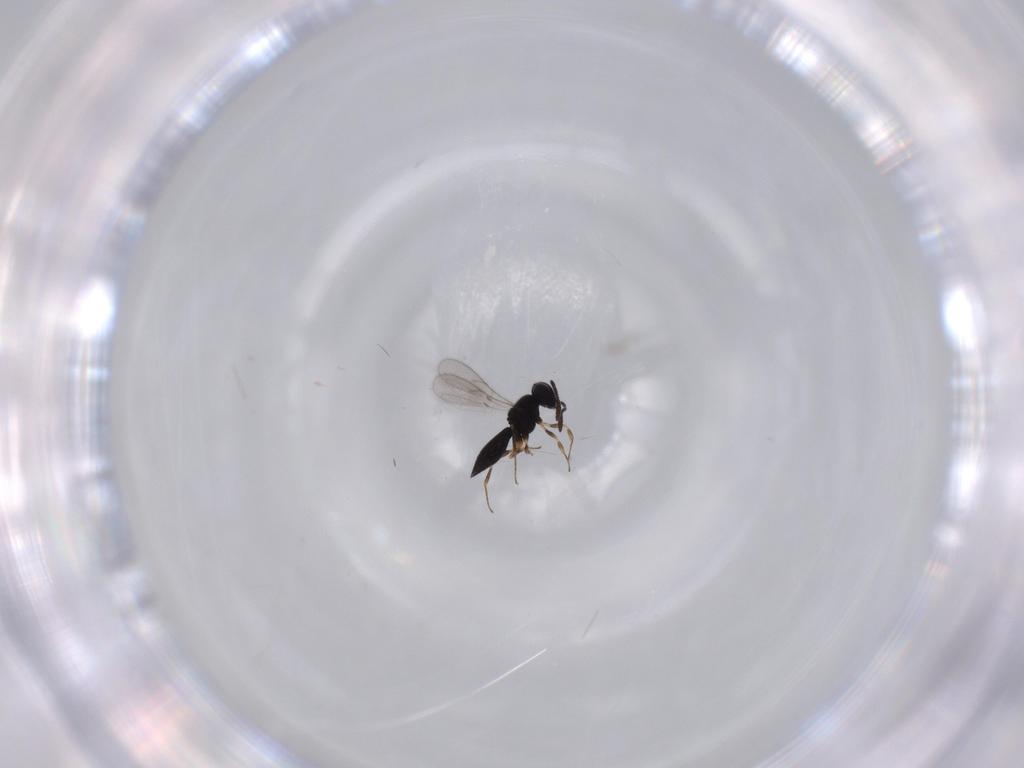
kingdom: Animalia
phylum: Arthropoda
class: Insecta
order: Hymenoptera
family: Scelionidae
